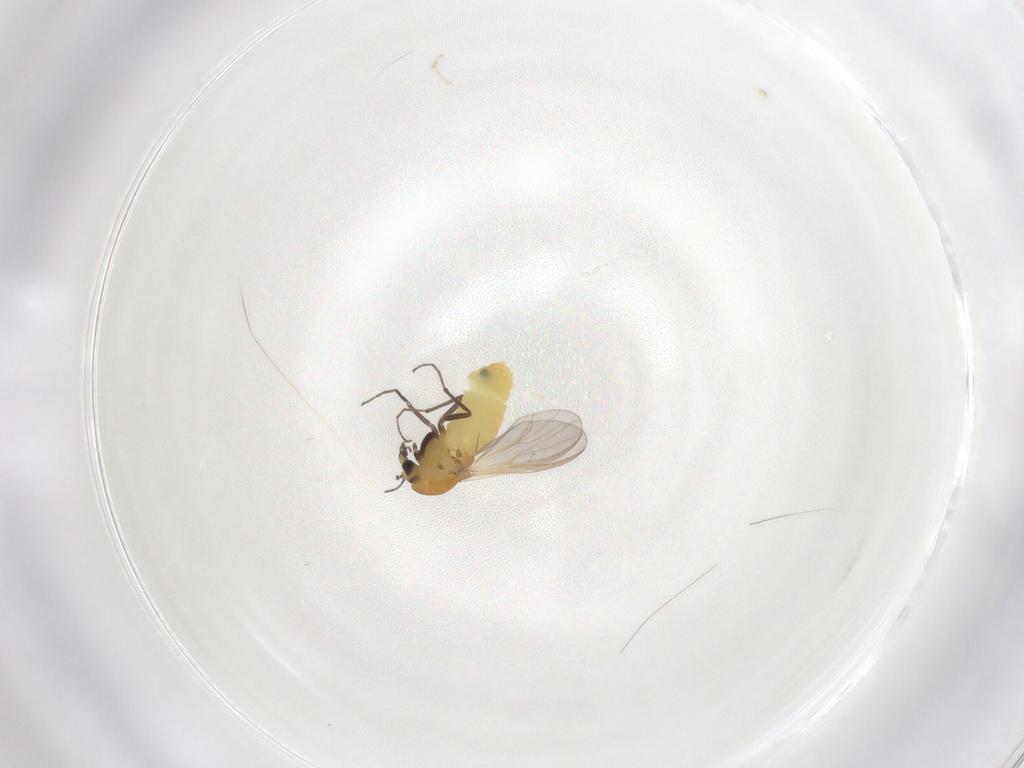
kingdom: Animalia
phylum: Arthropoda
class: Insecta
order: Diptera
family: Chironomidae
